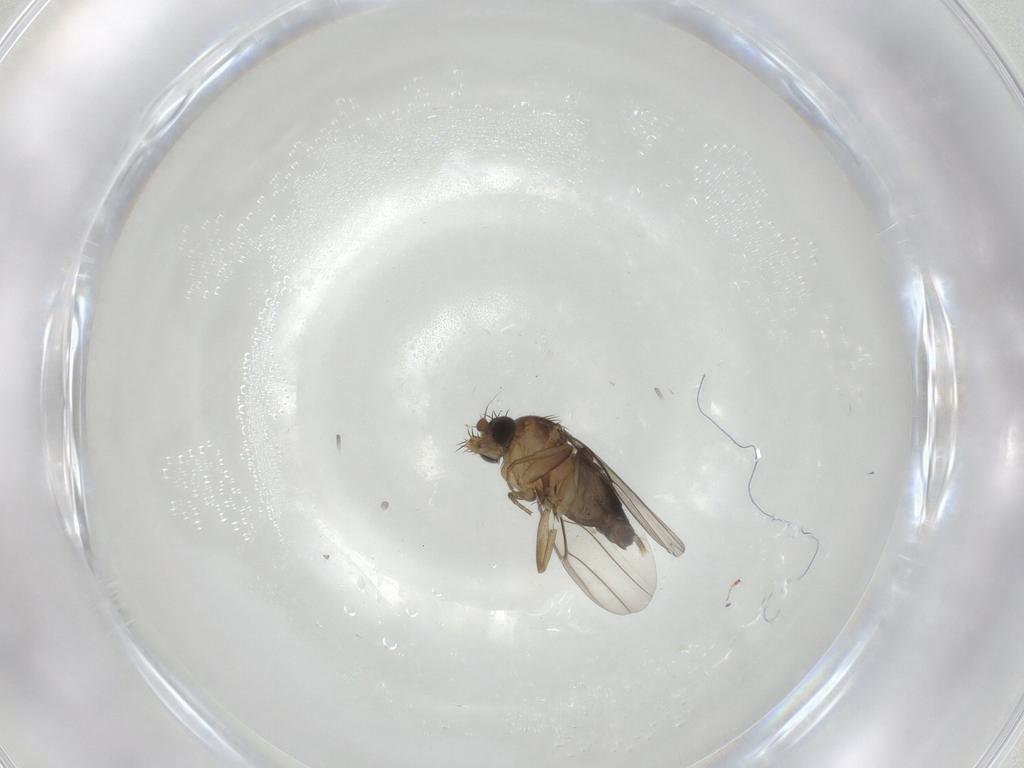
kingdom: Animalia
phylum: Arthropoda
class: Insecta
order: Diptera
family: Phoridae
